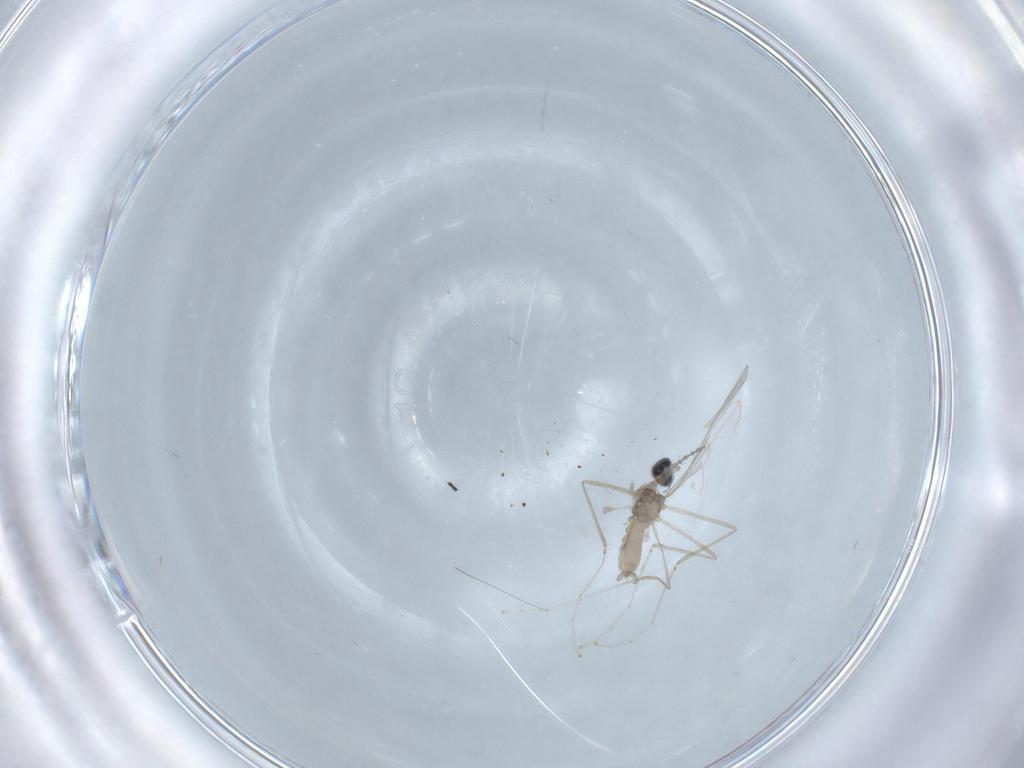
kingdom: Animalia
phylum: Arthropoda
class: Insecta
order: Diptera
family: Cecidomyiidae
